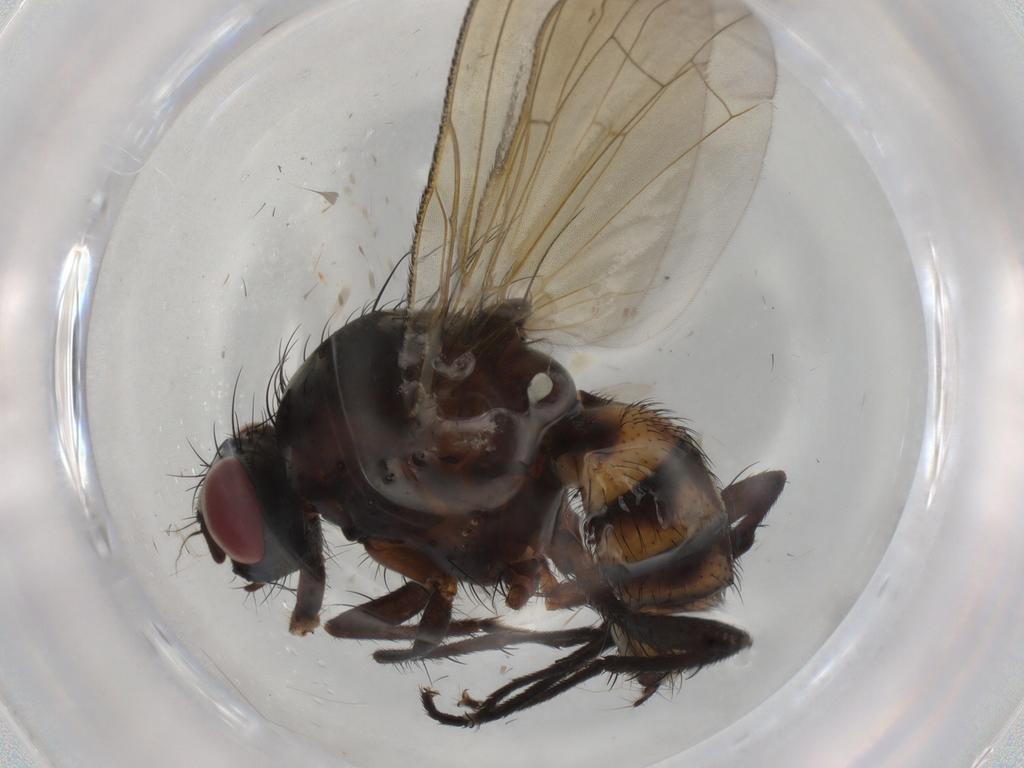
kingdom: Animalia
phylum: Arthropoda
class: Insecta
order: Diptera
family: Anthomyiidae
